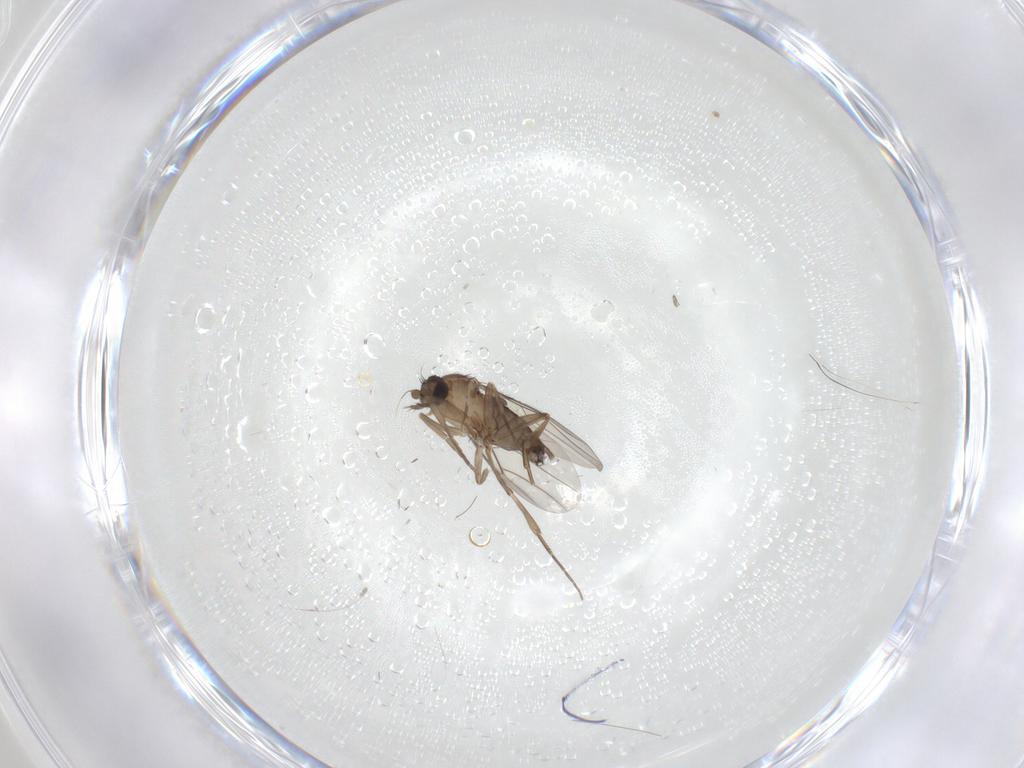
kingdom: Animalia
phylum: Arthropoda
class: Insecta
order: Diptera
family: Phoridae
